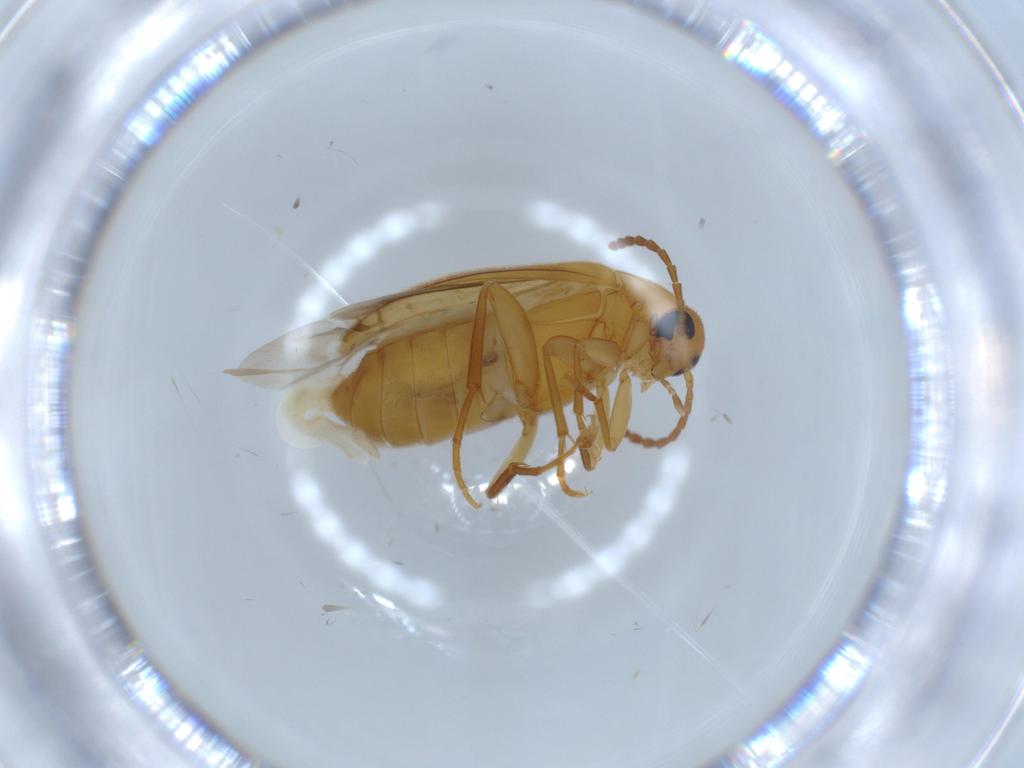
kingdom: Animalia
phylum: Arthropoda
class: Insecta
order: Coleoptera
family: Scraptiidae
